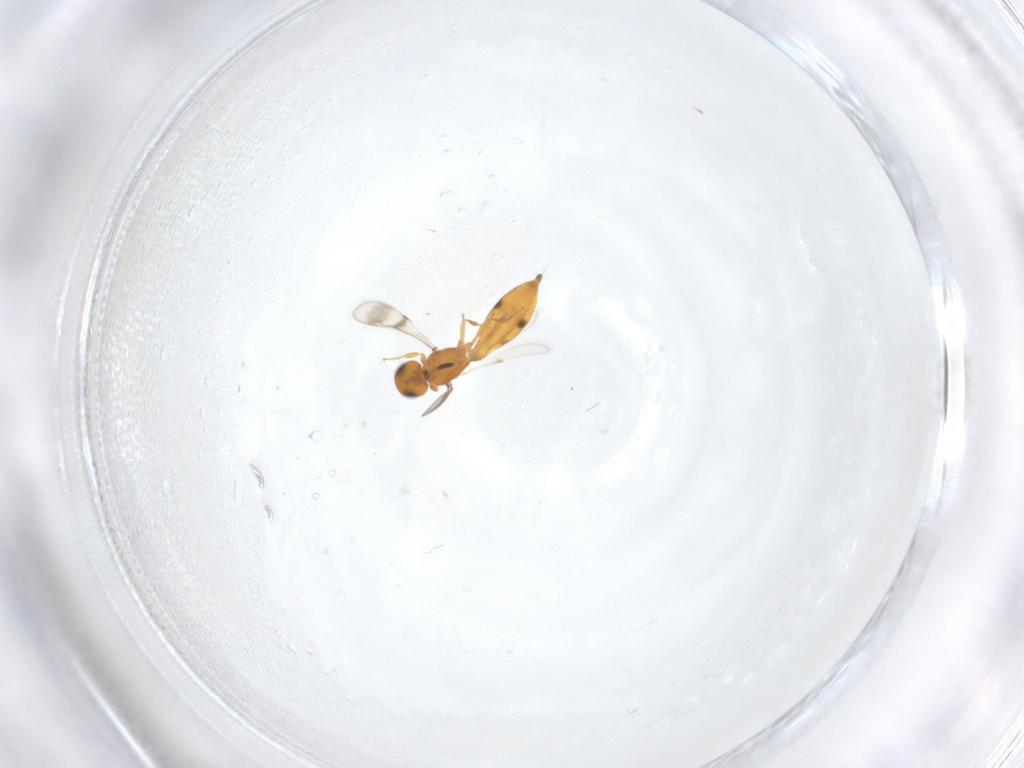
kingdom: Animalia
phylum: Arthropoda
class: Insecta
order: Hymenoptera
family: Scelionidae
